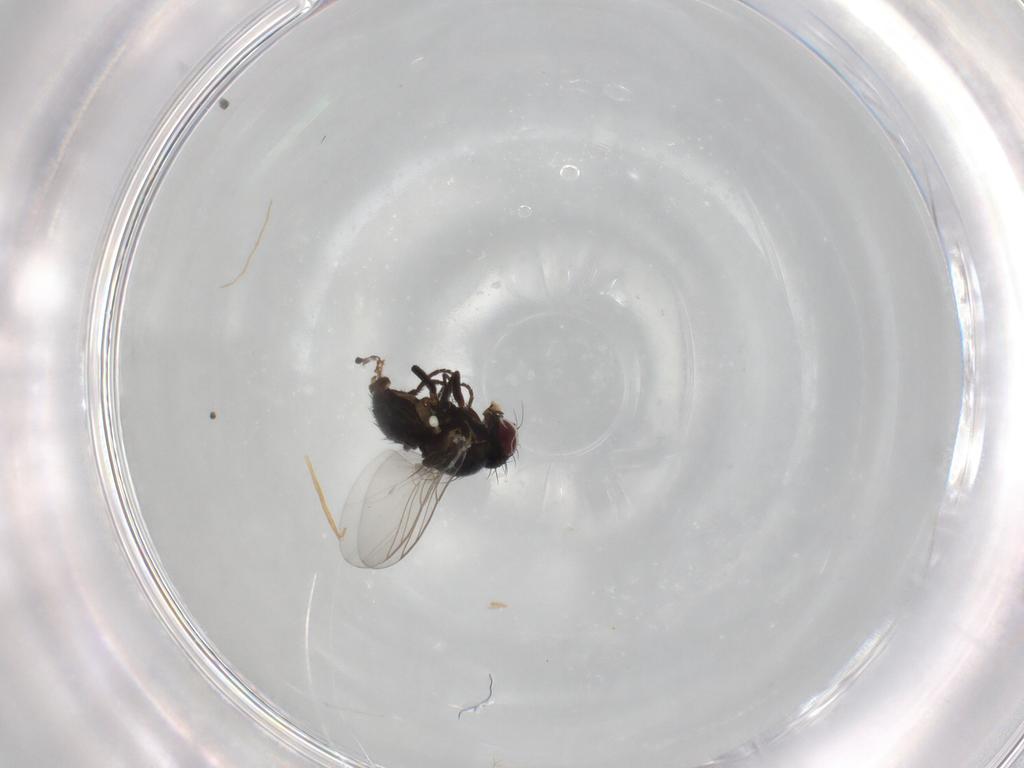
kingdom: Animalia
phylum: Arthropoda
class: Insecta
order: Diptera
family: Phoridae
